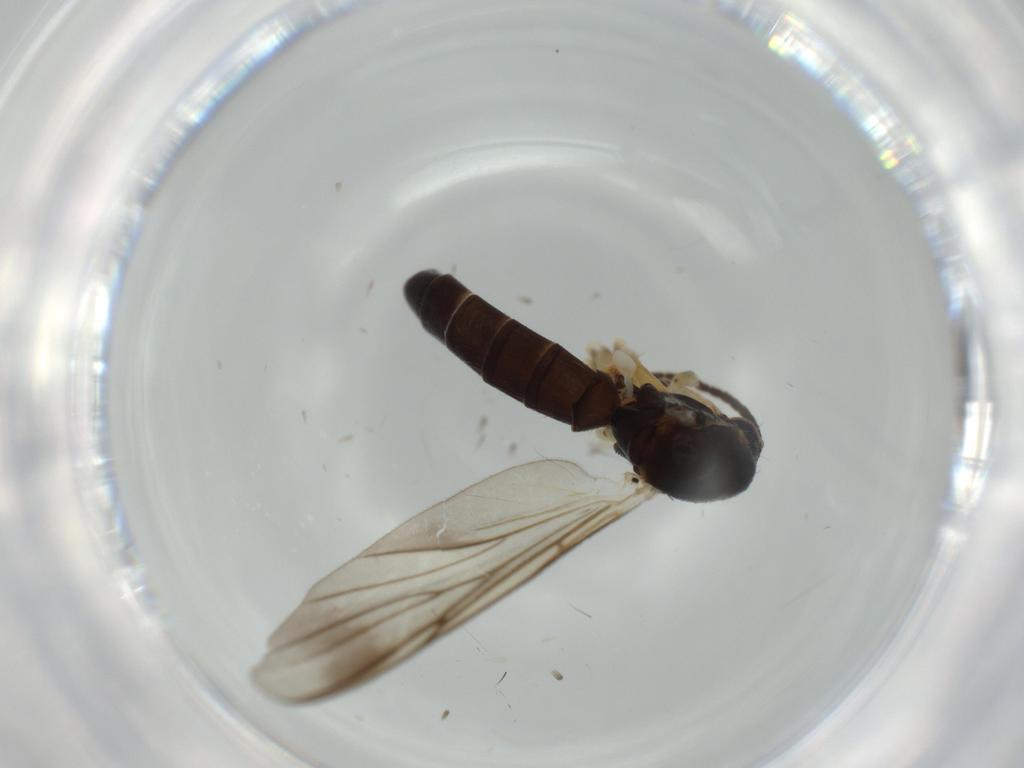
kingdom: Animalia
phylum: Arthropoda
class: Insecta
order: Diptera
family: Mycetophilidae
